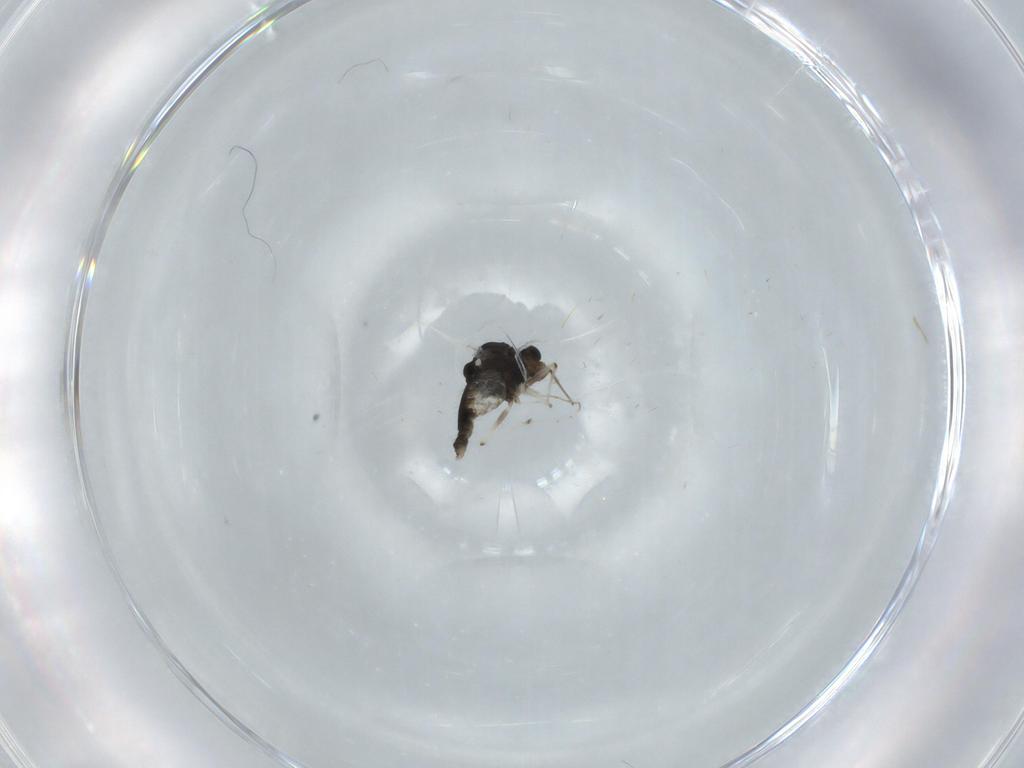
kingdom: Animalia
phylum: Arthropoda
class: Insecta
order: Diptera
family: Chironomidae
